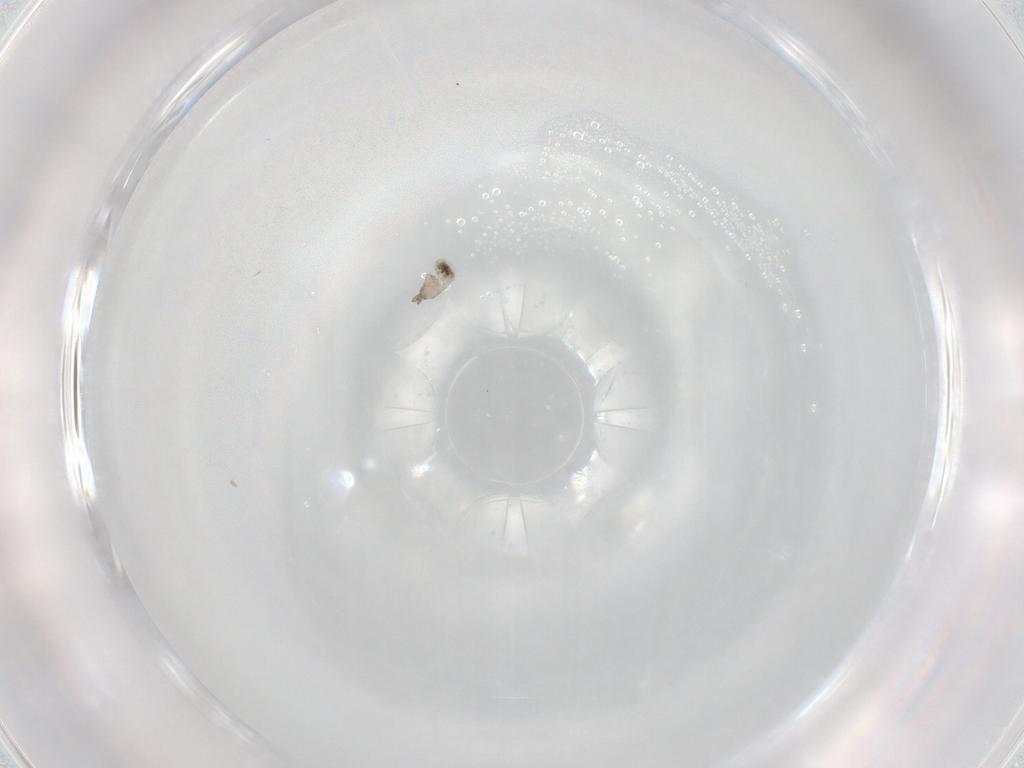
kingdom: Animalia
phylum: Arthropoda
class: Insecta
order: Diptera
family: Cecidomyiidae
